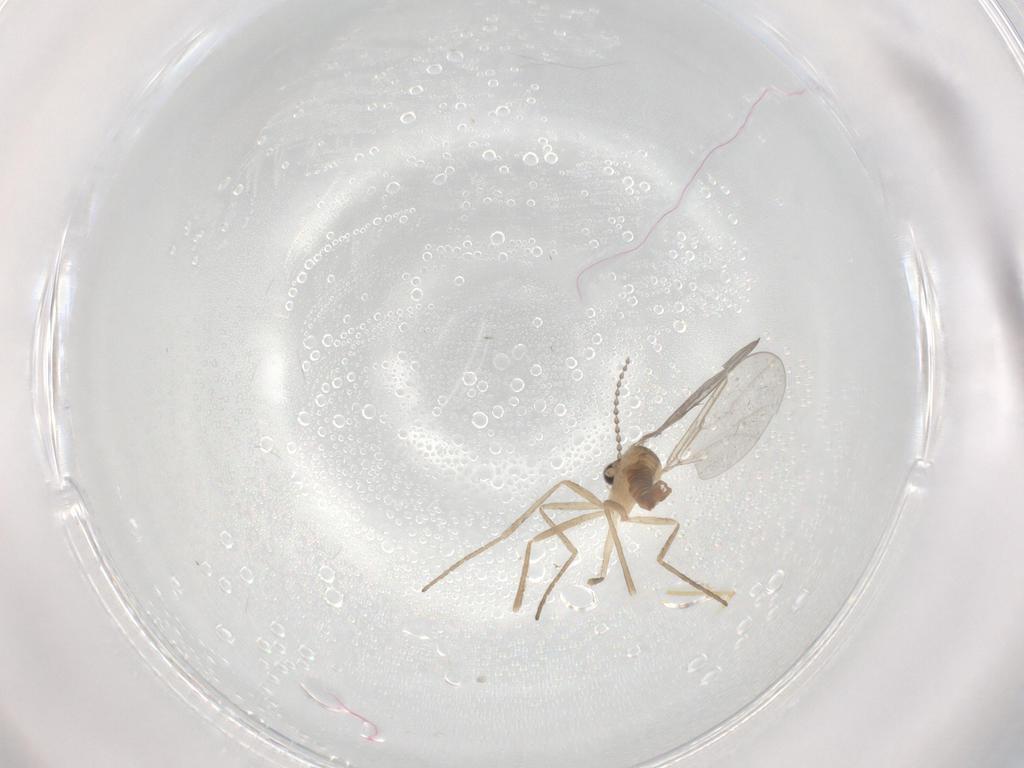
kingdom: Animalia
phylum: Arthropoda
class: Insecta
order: Diptera
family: Cecidomyiidae
